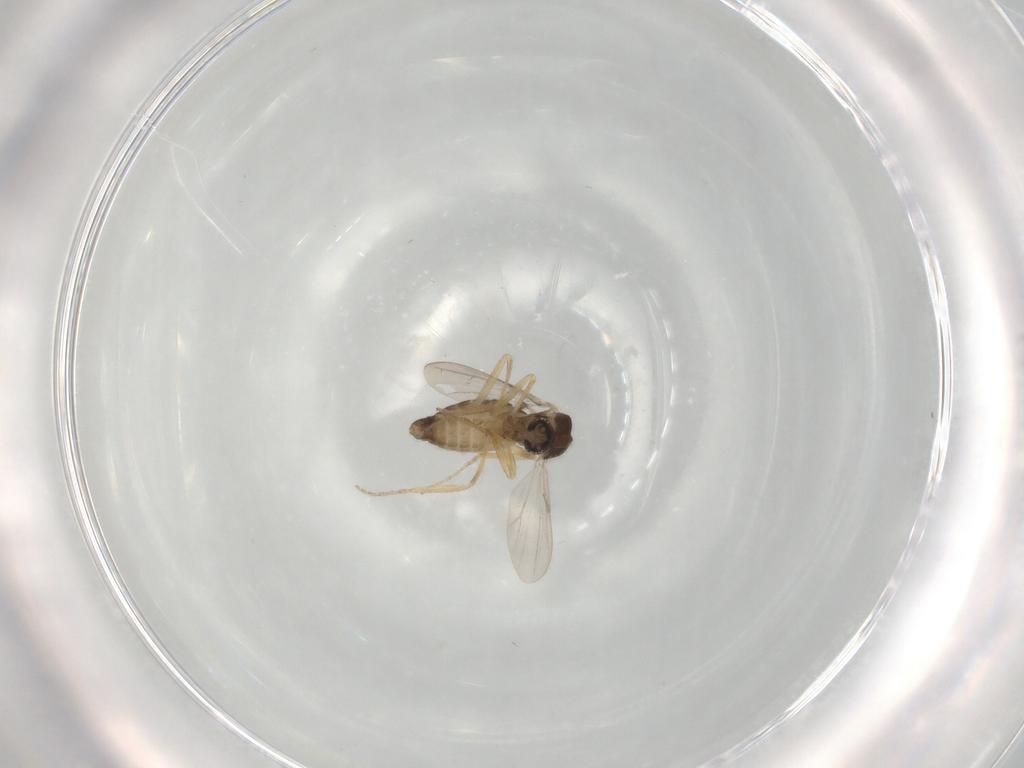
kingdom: Animalia
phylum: Arthropoda
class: Insecta
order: Diptera
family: Ceratopogonidae
